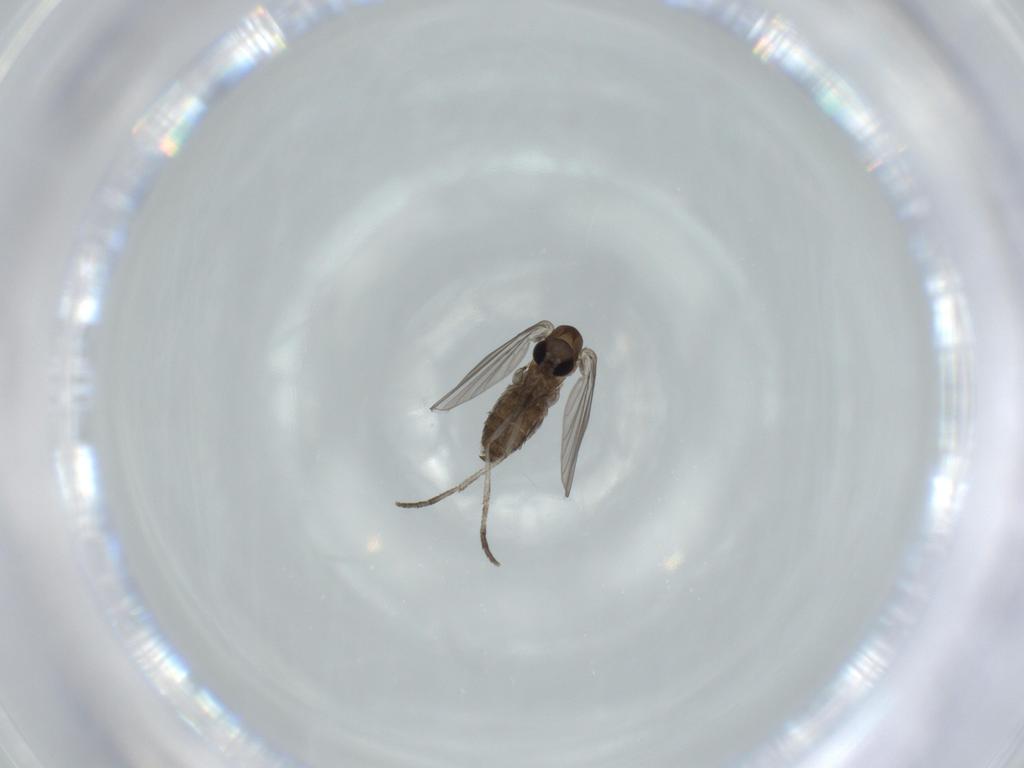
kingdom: Animalia
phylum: Arthropoda
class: Insecta
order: Diptera
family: Psychodidae
